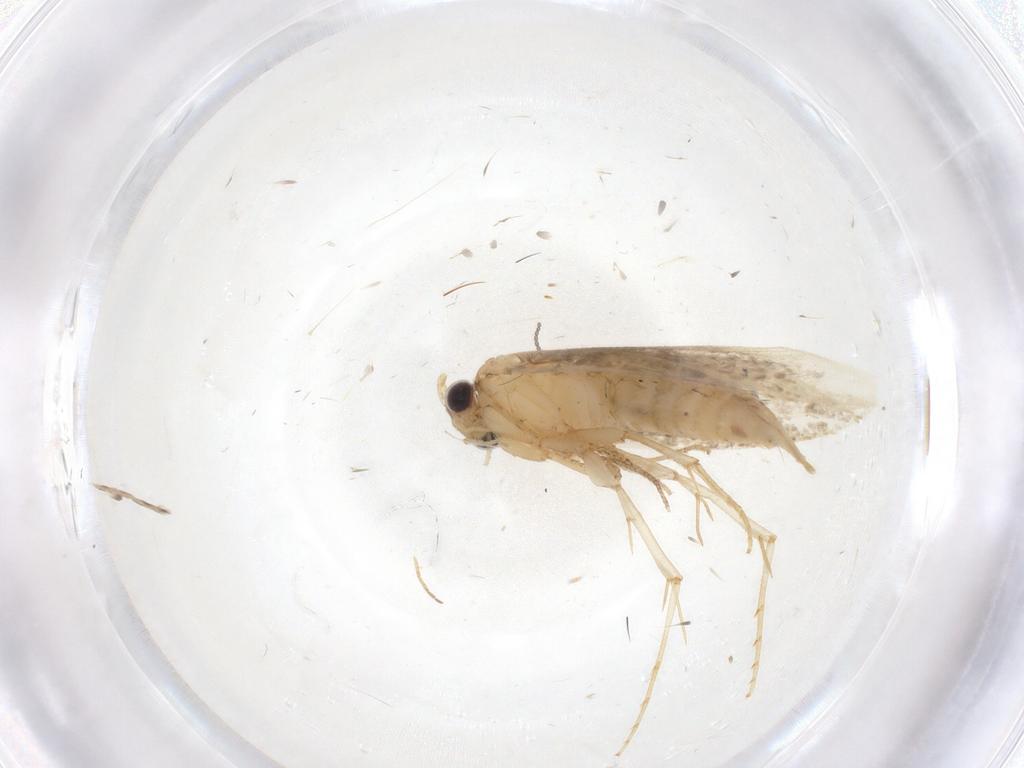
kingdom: Animalia
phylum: Arthropoda
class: Insecta
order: Lepidoptera
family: Tineidae
